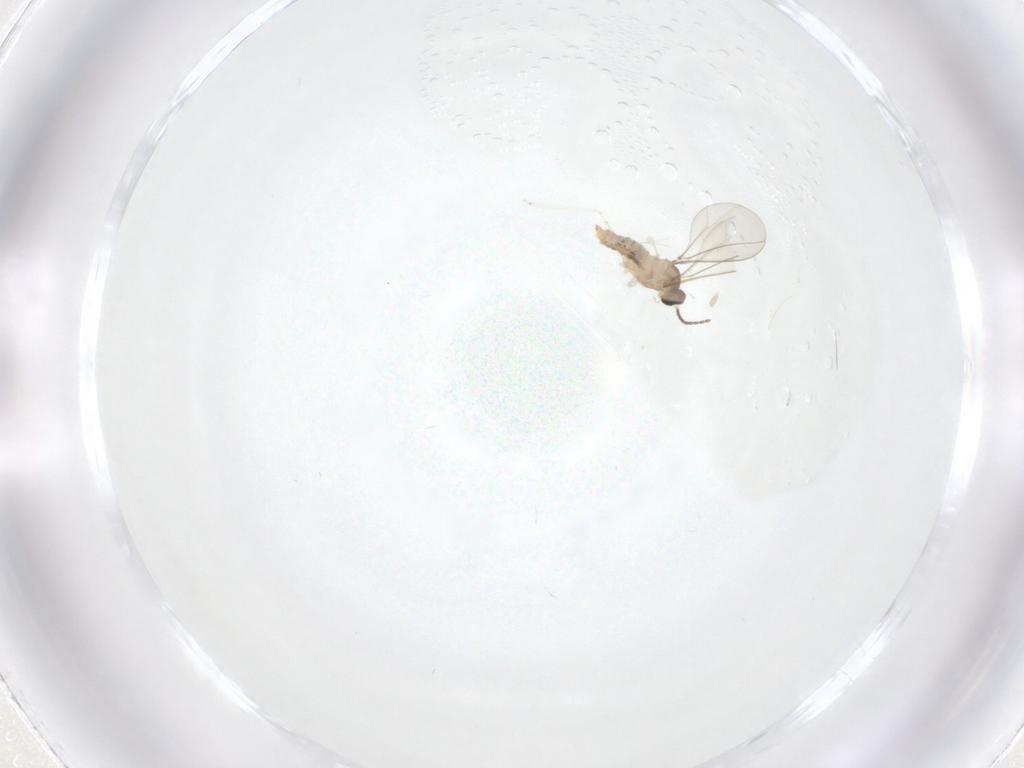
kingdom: Animalia
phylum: Arthropoda
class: Insecta
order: Diptera
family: Cecidomyiidae
